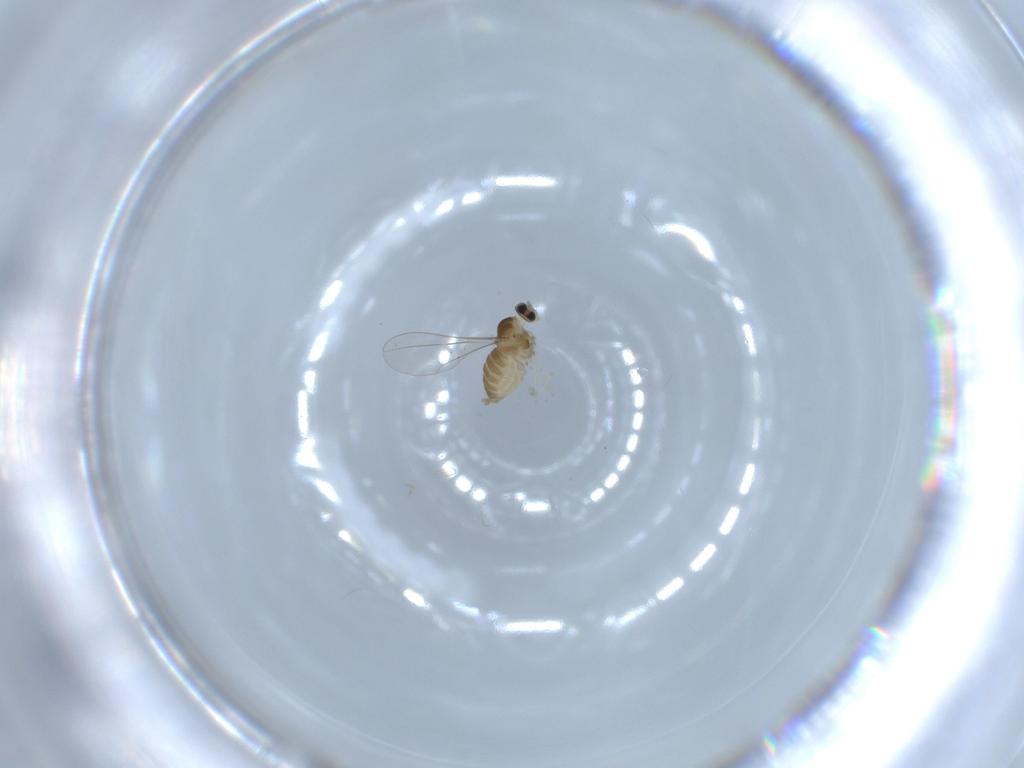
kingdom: Animalia
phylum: Arthropoda
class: Insecta
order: Diptera
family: Cecidomyiidae
